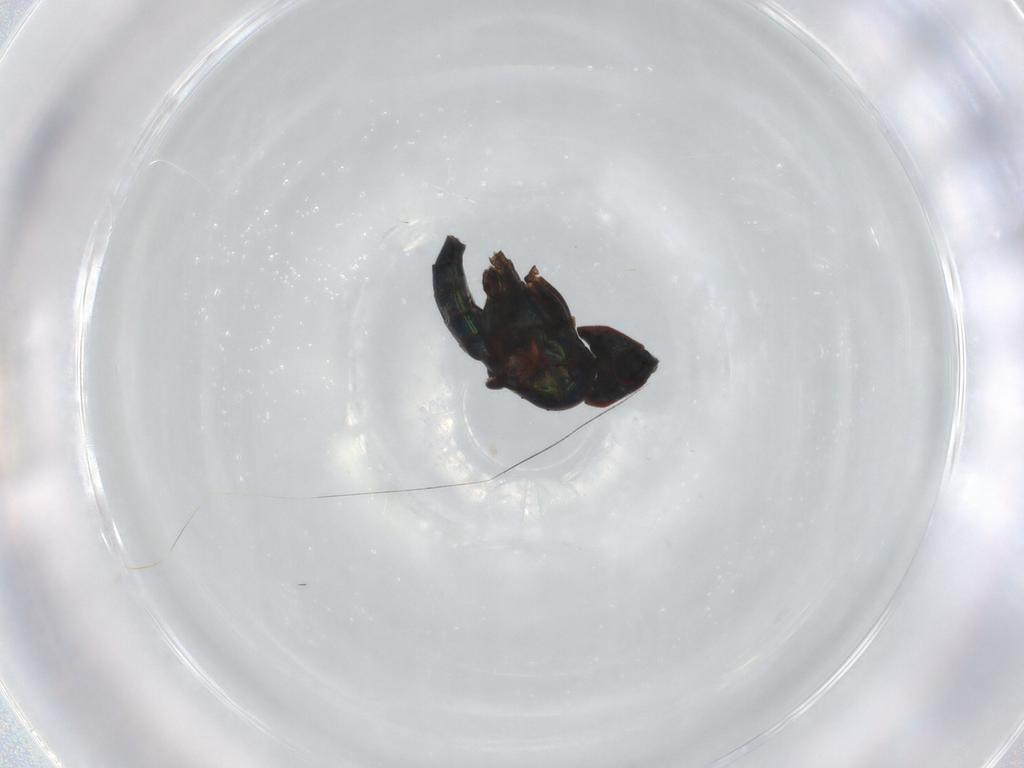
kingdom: Animalia
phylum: Arthropoda
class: Insecta
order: Diptera
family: Dolichopodidae
